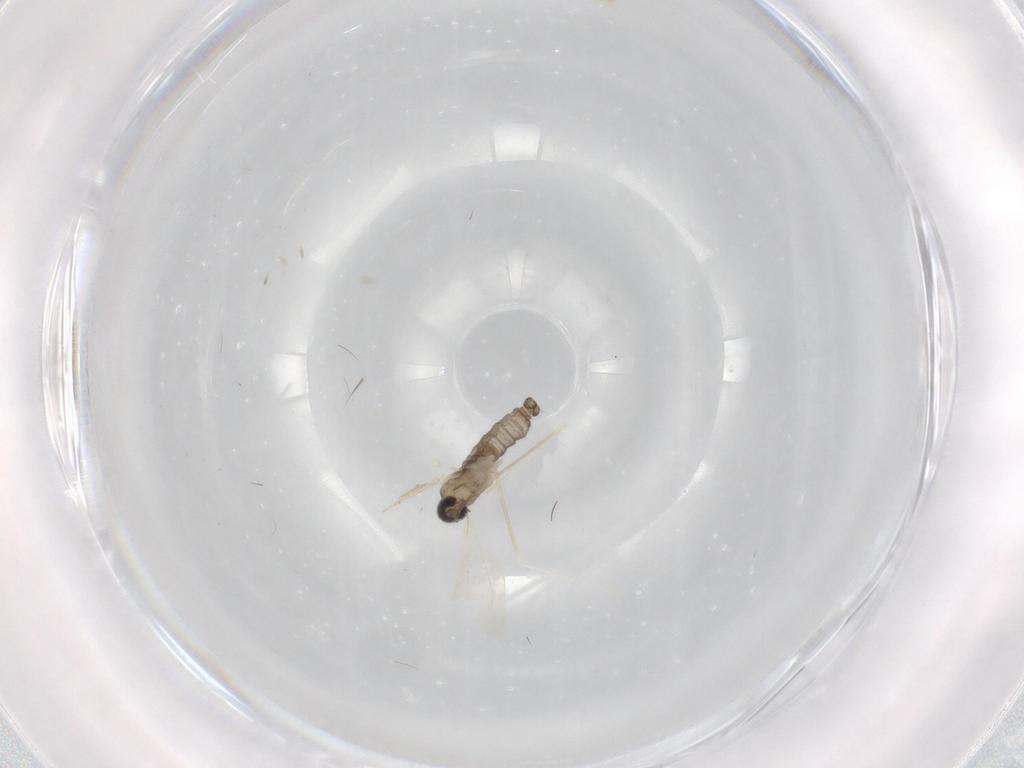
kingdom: Animalia
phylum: Arthropoda
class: Insecta
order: Diptera
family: Cecidomyiidae
